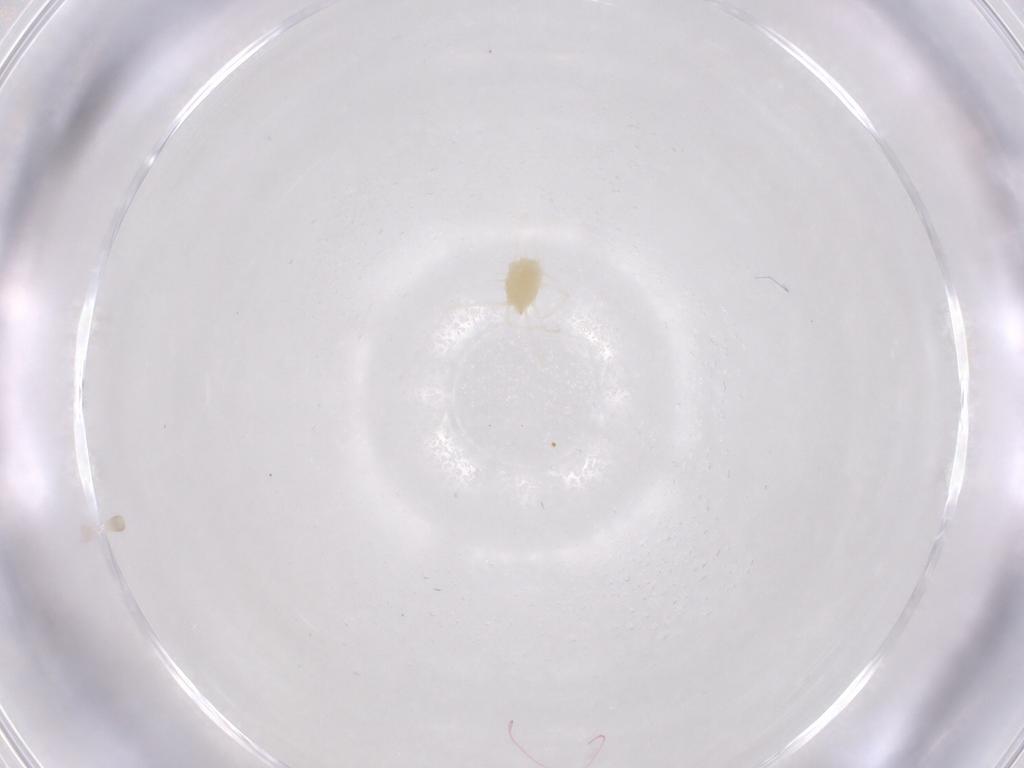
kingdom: Animalia
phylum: Arthropoda
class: Arachnida
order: Trombidiformes
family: Tetranychidae
